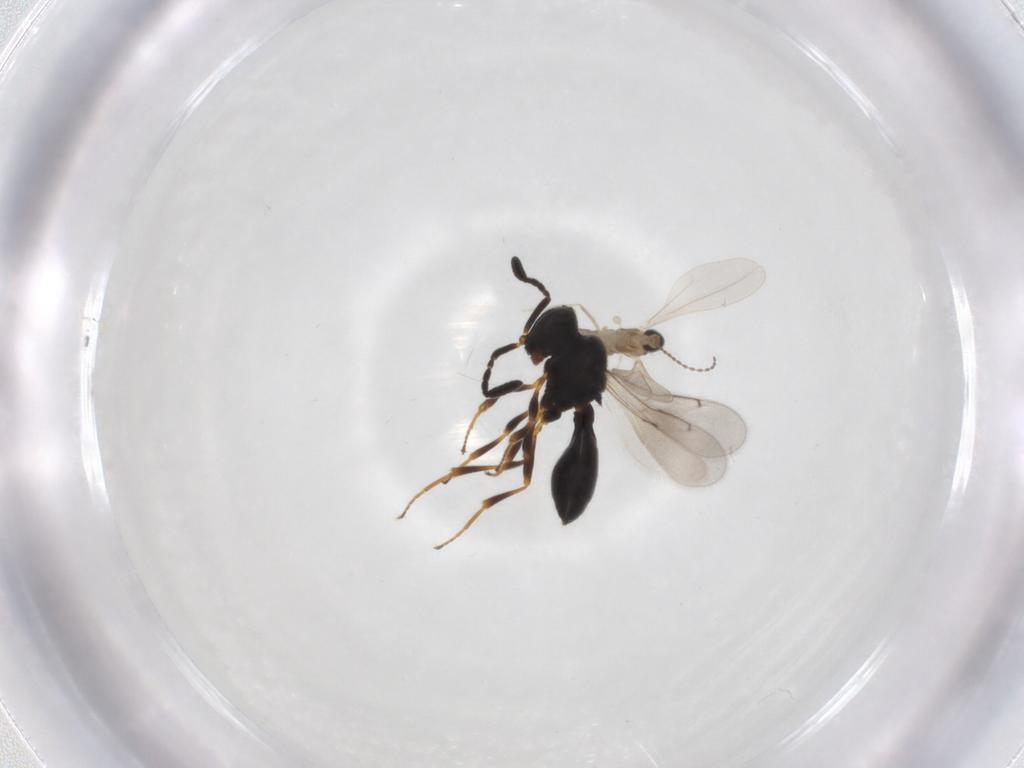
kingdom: Animalia
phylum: Arthropoda
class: Insecta
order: Diptera
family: Cecidomyiidae
